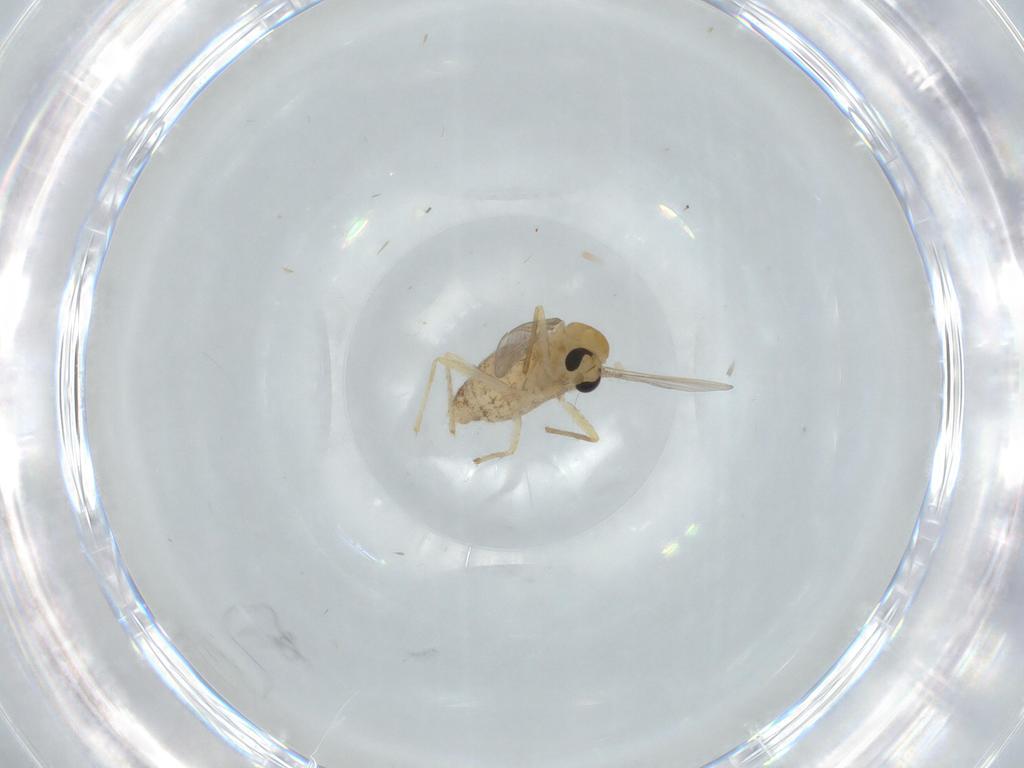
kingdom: Animalia
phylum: Arthropoda
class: Insecta
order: Diptera
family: Chironomidae
